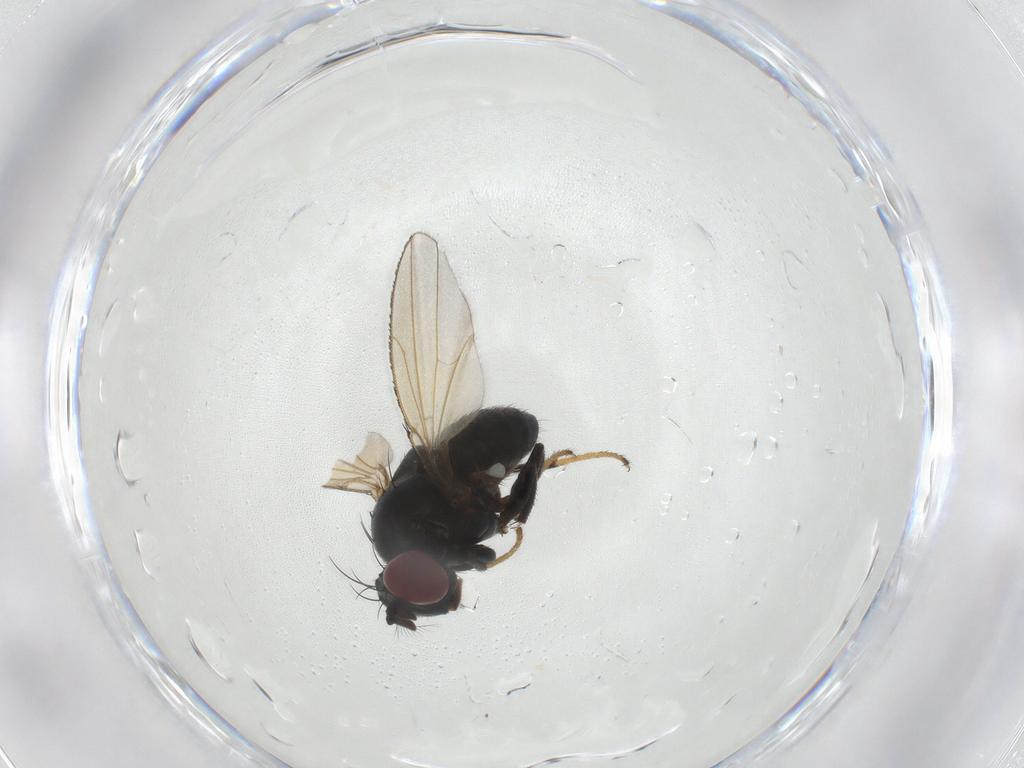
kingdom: Animalia
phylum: Arthropoda
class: Insecta
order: Diptera
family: Ephydridae
